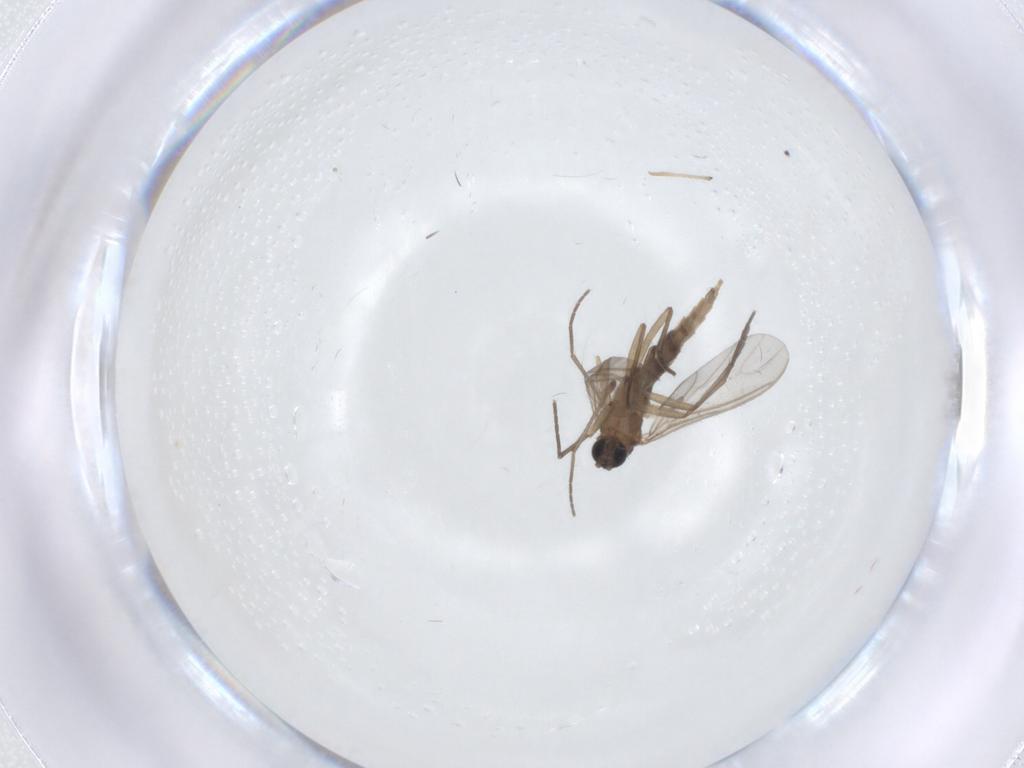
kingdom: Animalia
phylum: Arthropoda
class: Insecta
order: Diptera
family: Sciaridae
